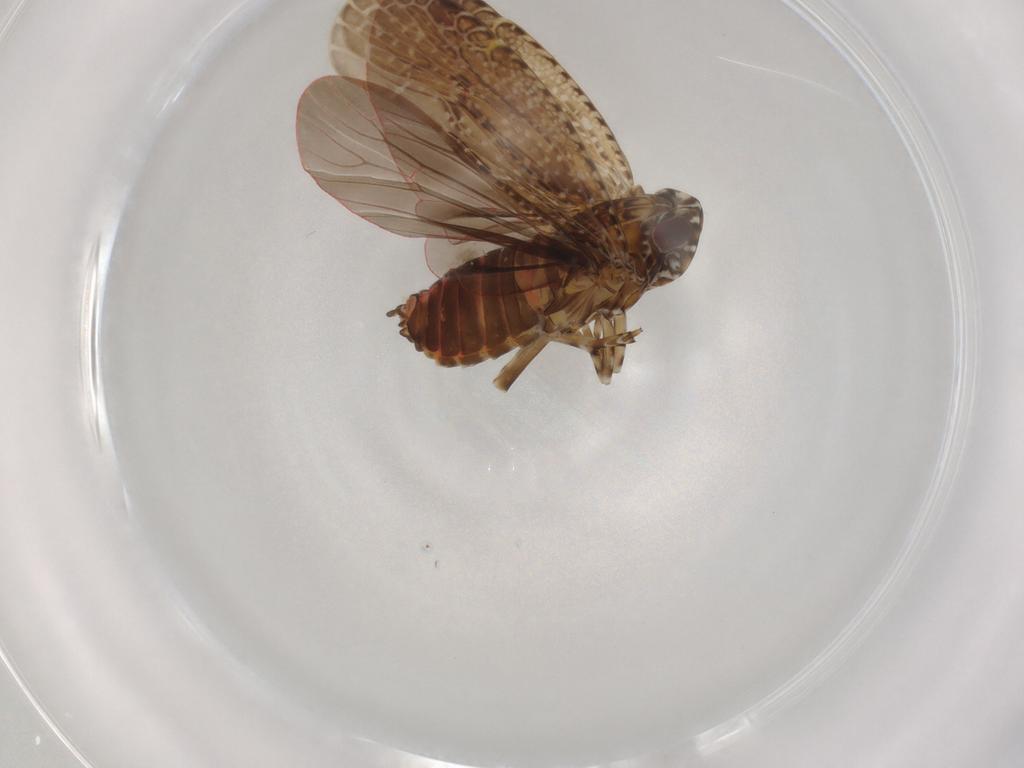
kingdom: Animalia
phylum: Arthropoda
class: Insecta
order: Hemiptera
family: Achilidae
